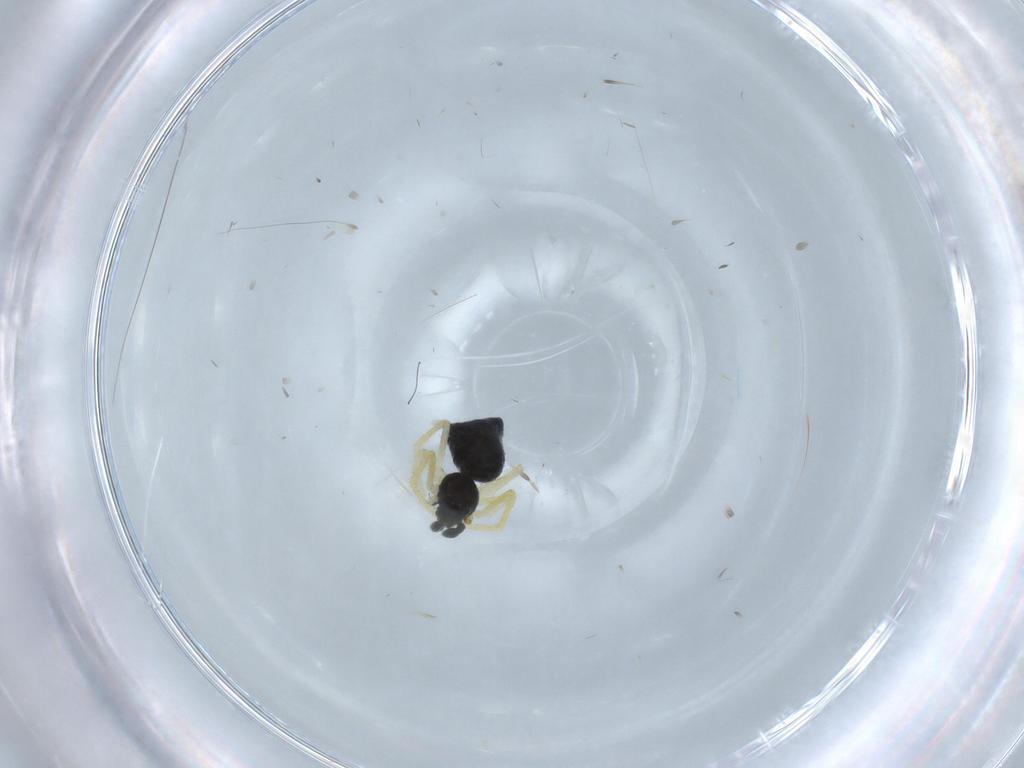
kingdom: Animalia
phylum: Arthropoda
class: Arachnida
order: Araneae
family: Theridiidae
